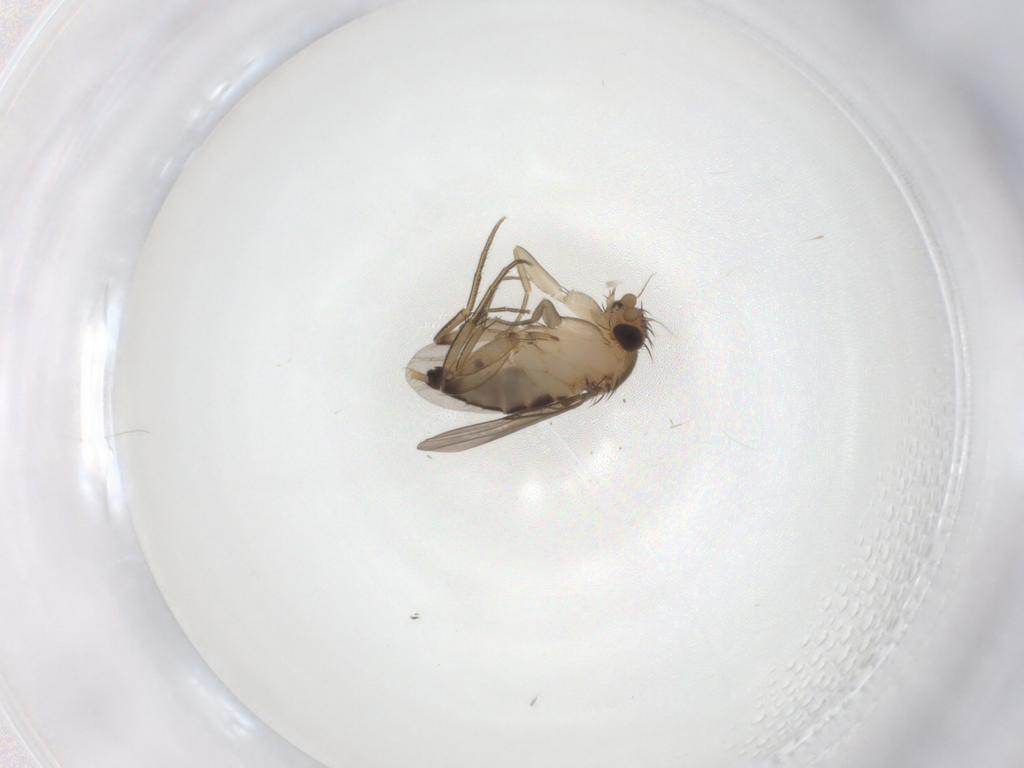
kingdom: Animalia
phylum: Arthropoda
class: Insecta
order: Diptera
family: Phoridae
